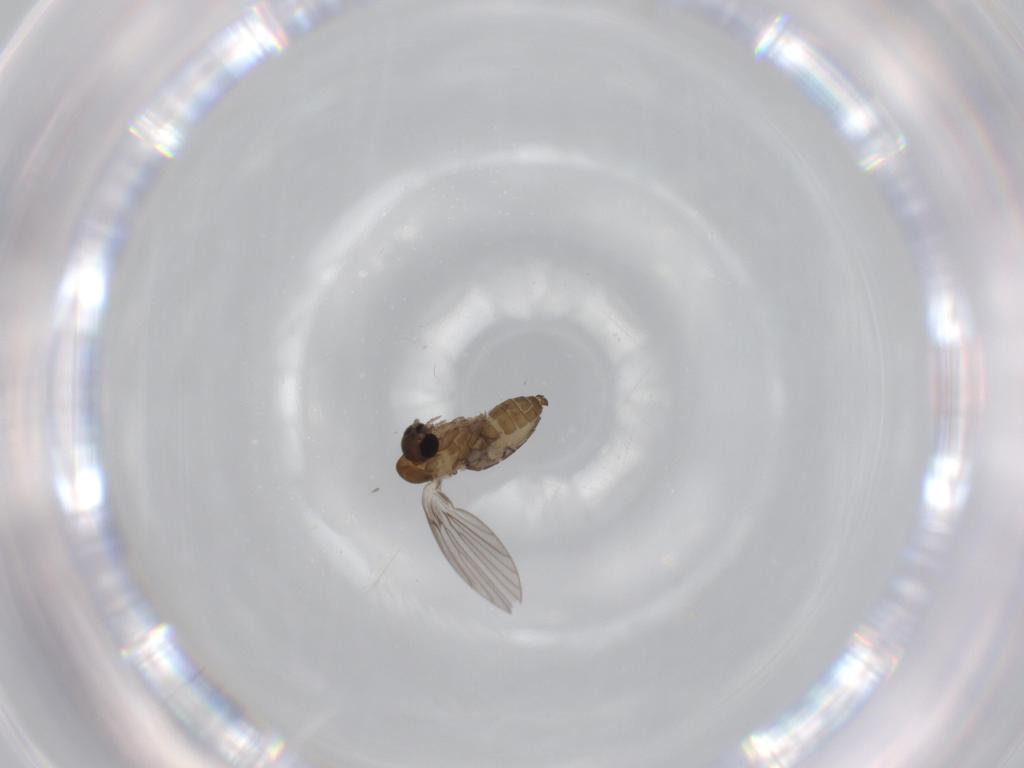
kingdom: Animalia
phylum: Arthropoda
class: Insecta
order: Diptera
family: Psychodidae
